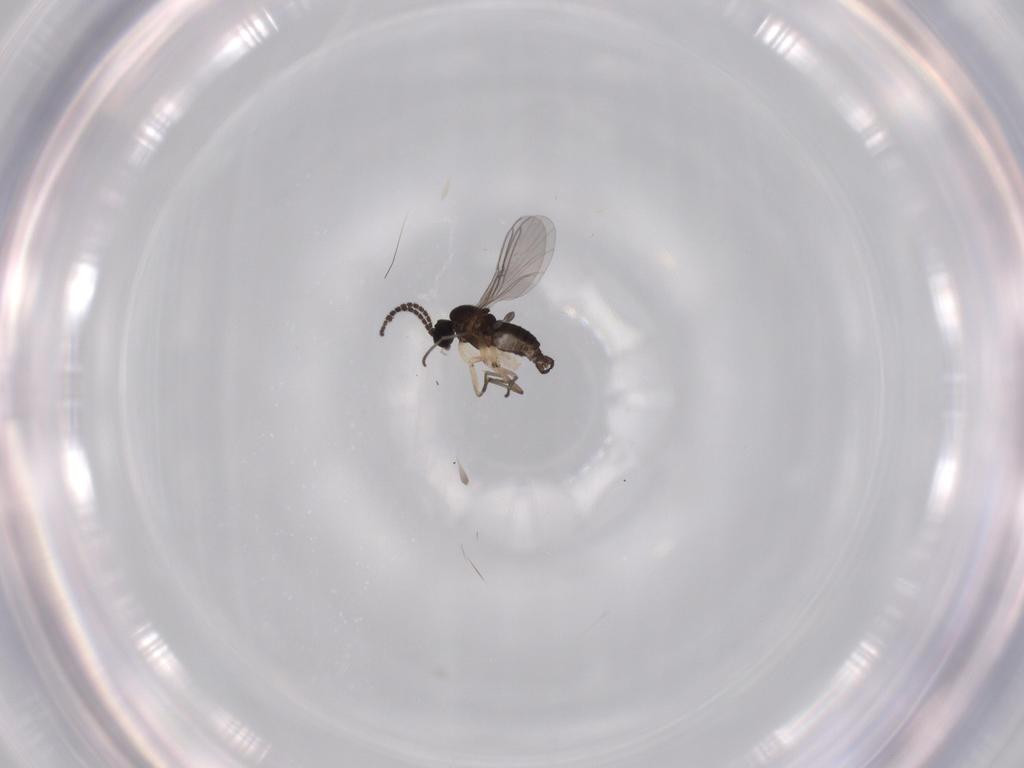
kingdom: Animalia
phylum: Arthropoda
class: Insecta
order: Diptera
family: Sciaridae
